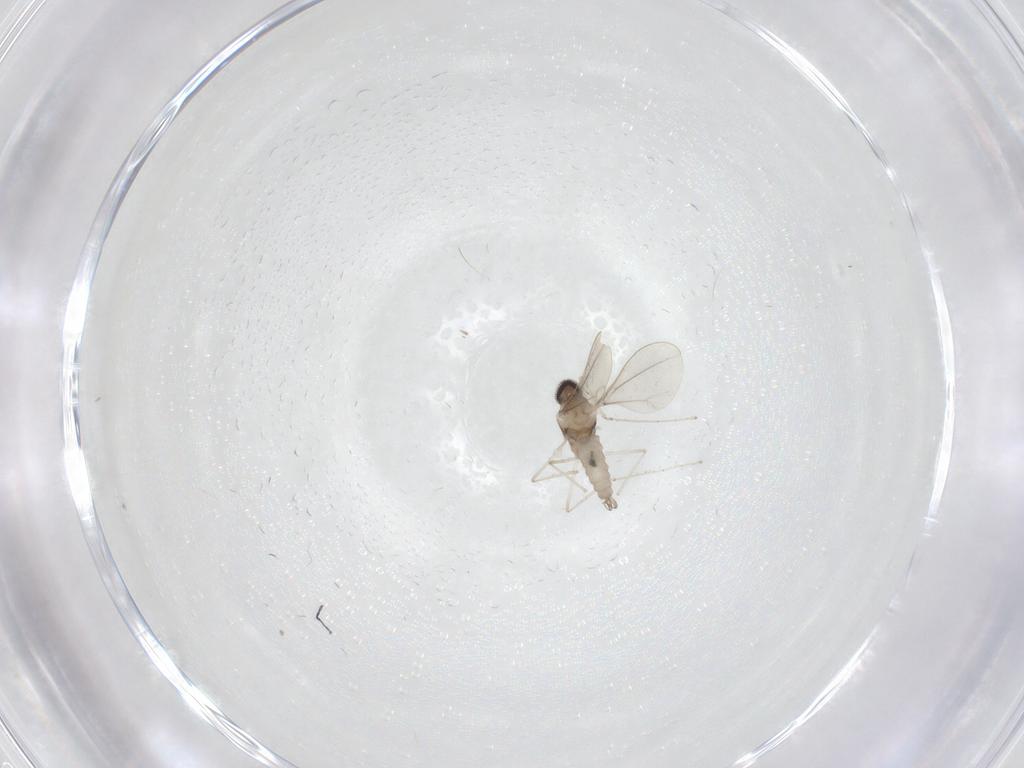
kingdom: Animalia
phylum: Arthropoda
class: Insecta
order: Diptera
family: Cecidomyiidae
